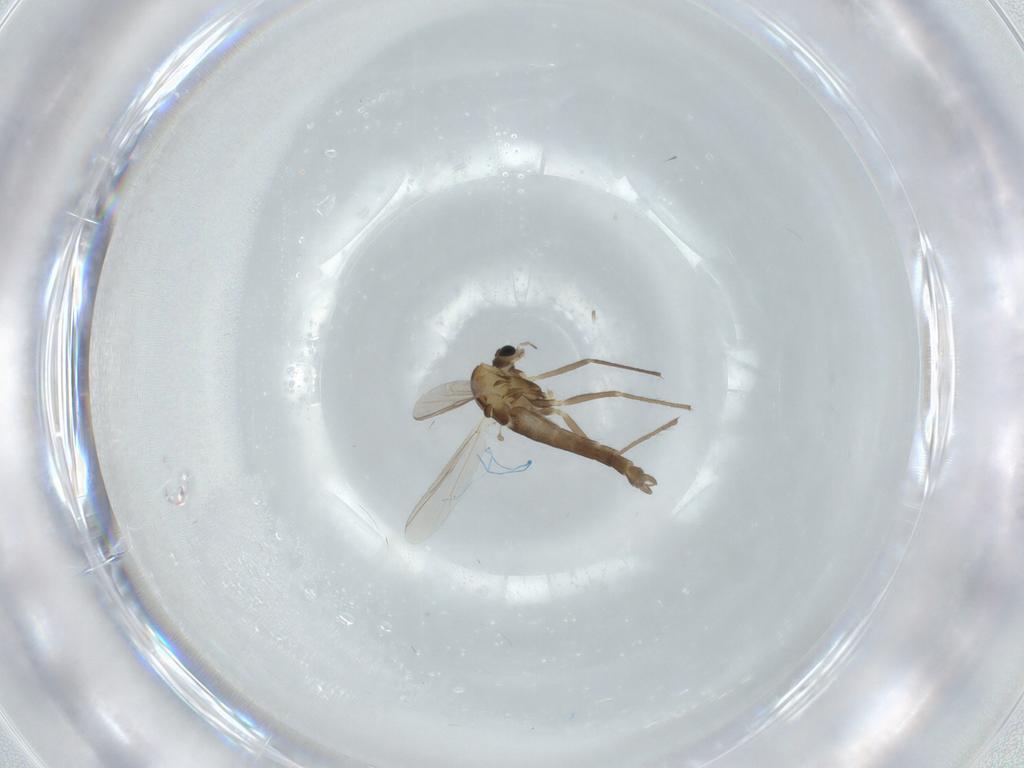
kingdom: Animalia
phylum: Arthropoda
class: Insecta
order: Diptera
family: Chironomidae
